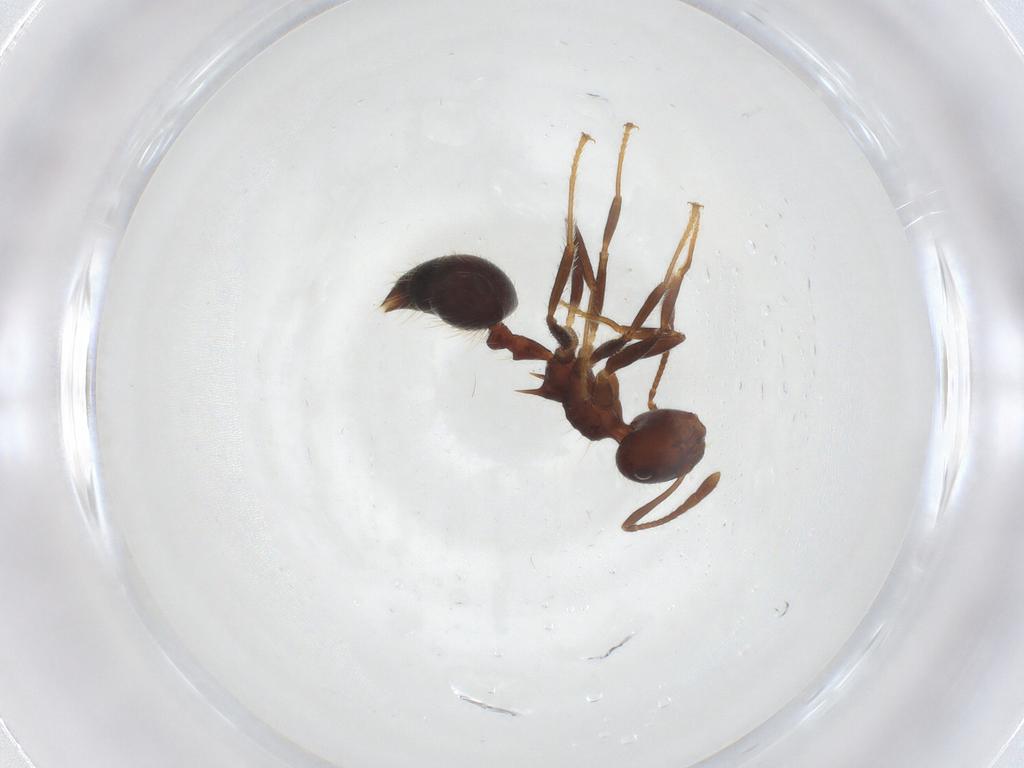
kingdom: Animalia
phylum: Arthropoda
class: Insecta
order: Hymenoptera
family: Formicidae
